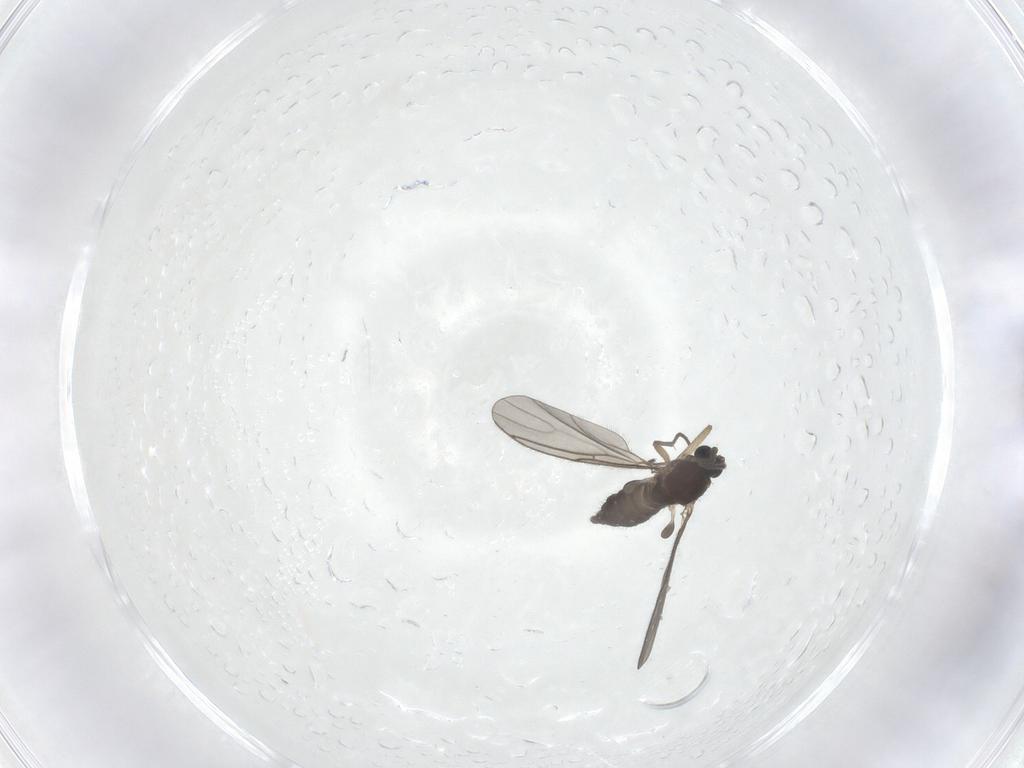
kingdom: Animalia
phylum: Arthropoda
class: Insecta
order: Diptera
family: Sciaridae
